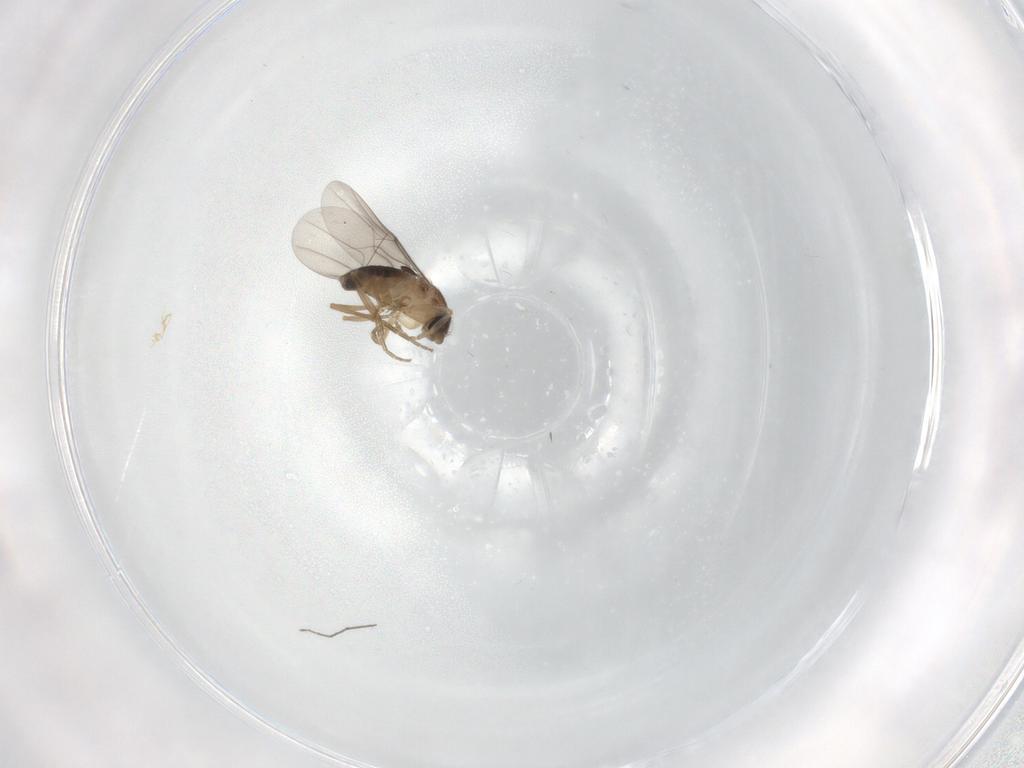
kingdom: Animalia
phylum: Arthropoda
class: Insecta
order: Diptera
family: Phoridae
